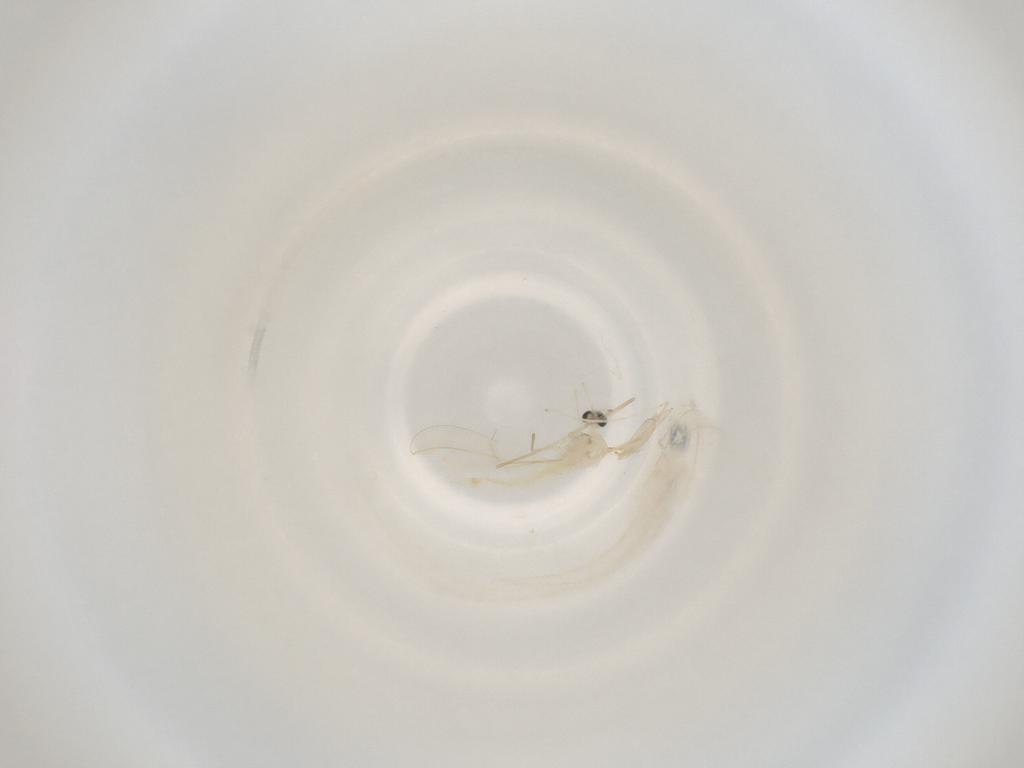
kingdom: Animalia
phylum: Arthropoda
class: Insecta
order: Diptera
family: Cecidomyiidae
